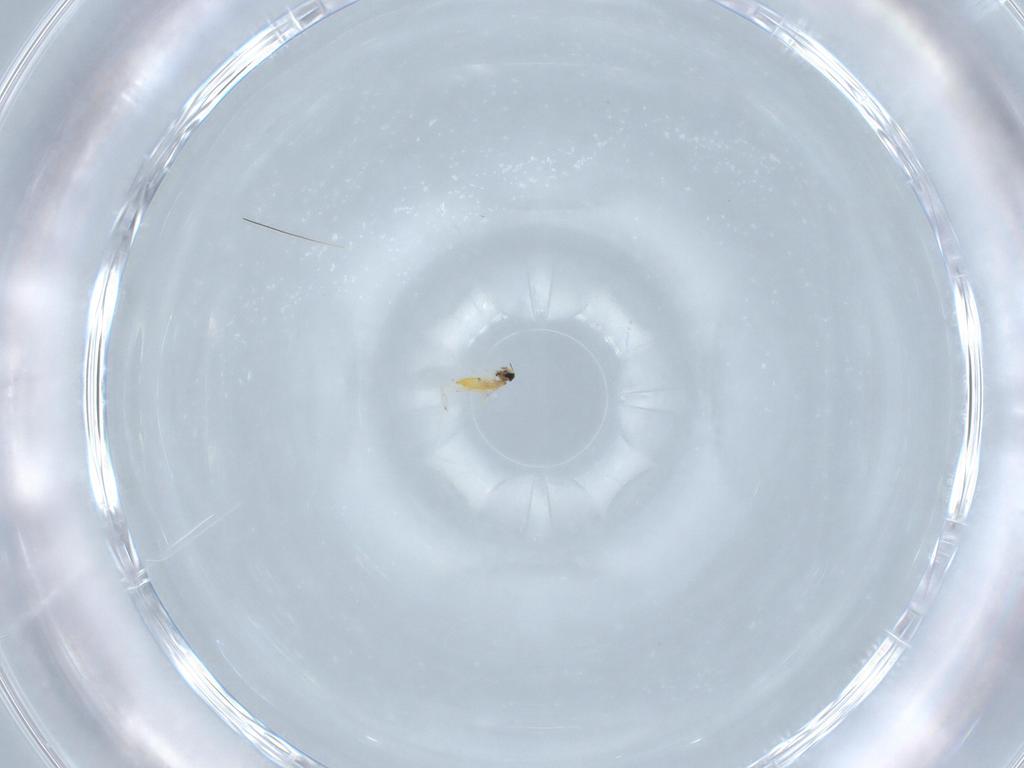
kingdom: Animalia
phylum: Arthropoda
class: Insecta
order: Hymenoptera
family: Trichogrammatidae
